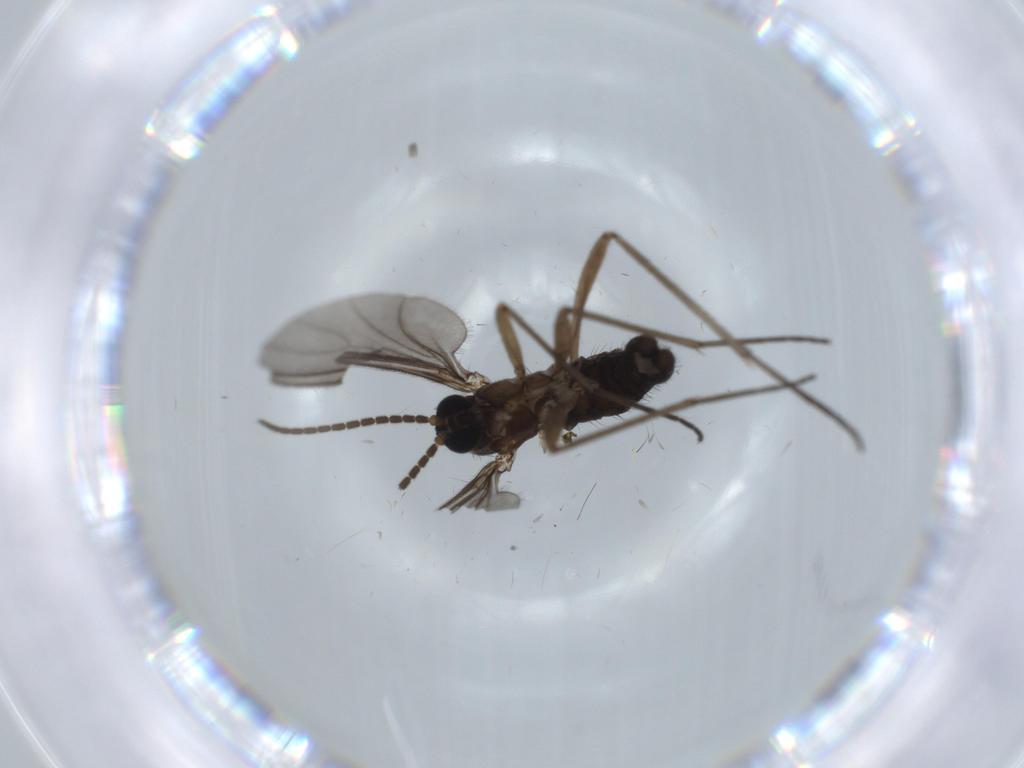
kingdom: Animalia
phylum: Arthropoda
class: Insecta
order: Diptera
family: Sciaridae
